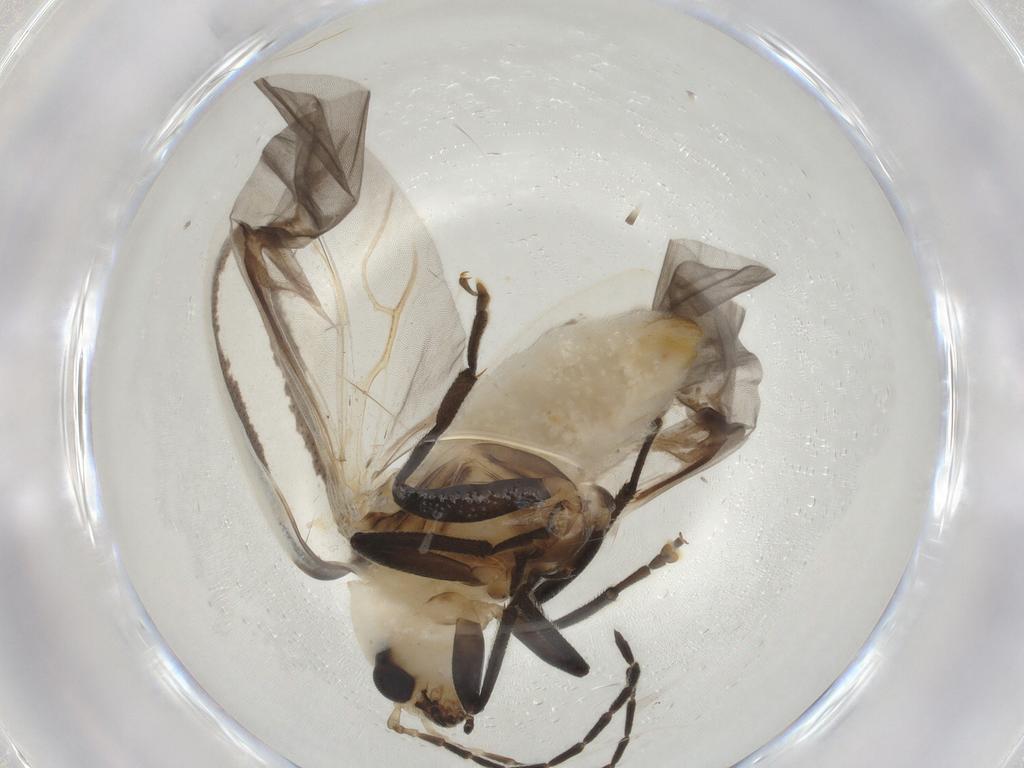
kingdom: Animalia
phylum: Arthropoda
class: Insecta
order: Coleoptera
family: Chrysomelidae
